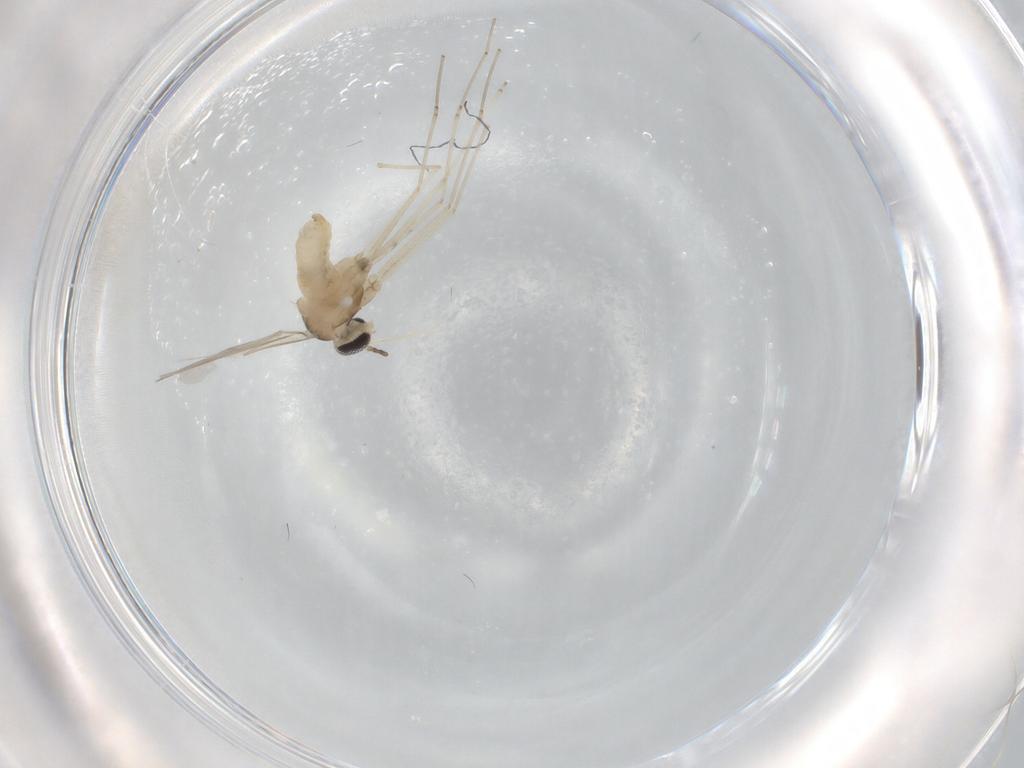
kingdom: Animalia
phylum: Arthropoda
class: Insecta
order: Diptera
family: Cecidomyiidae
